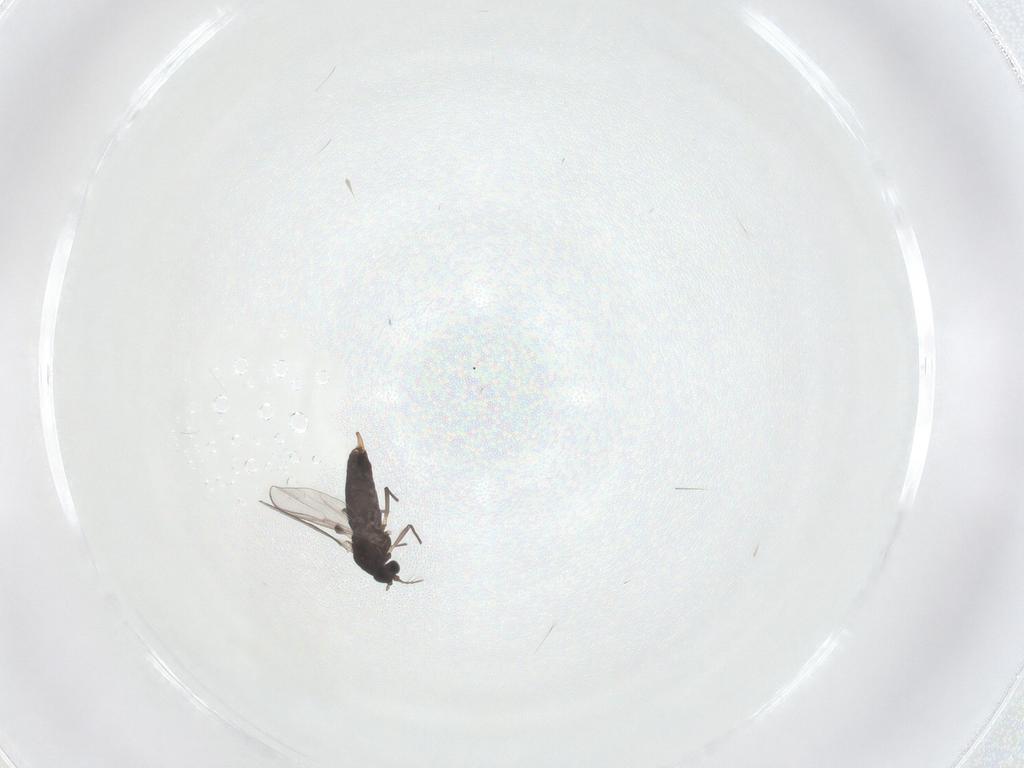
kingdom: Animalia
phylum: Arthropoda
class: Insecta
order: Diptera
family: Chironomidae
